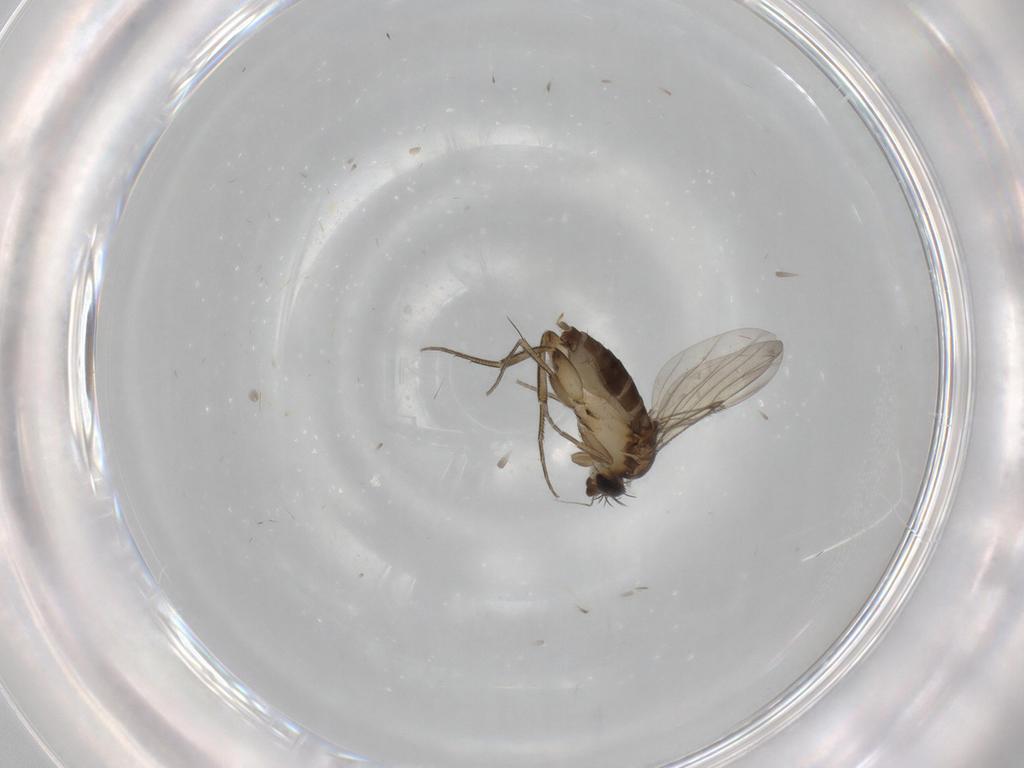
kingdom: Animalia
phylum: Arthropoda
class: Insecta
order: Diptera
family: Phoridae
